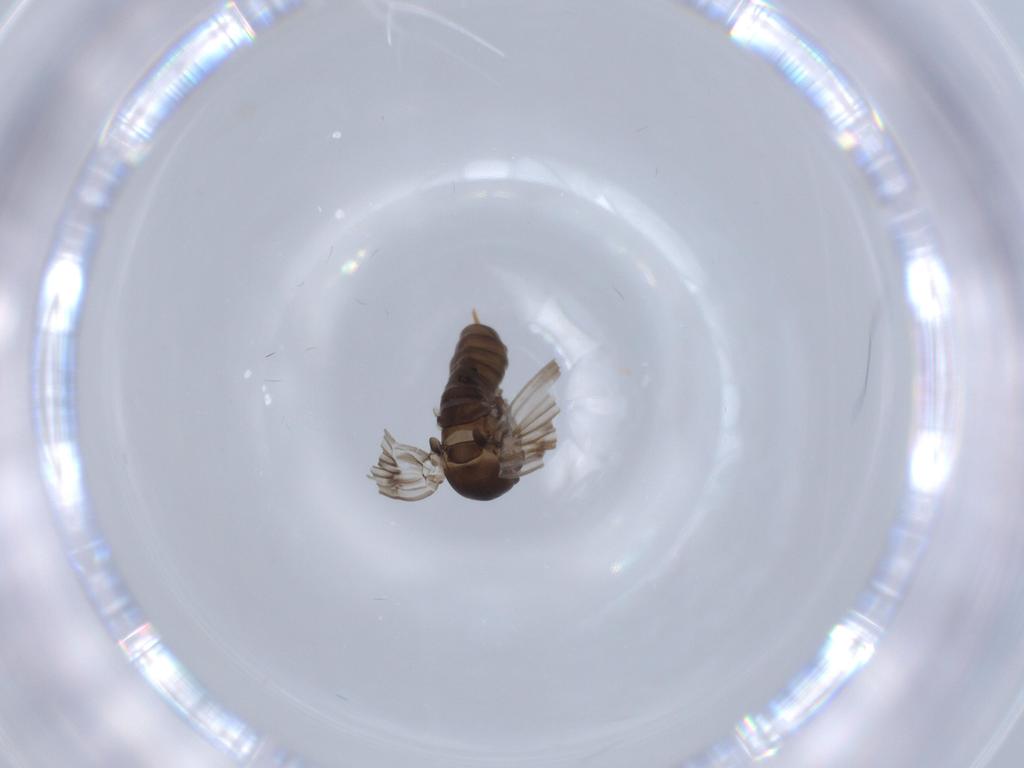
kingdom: Animalia
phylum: Arthropoda
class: Insecta
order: Diptera
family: Psychodidae
